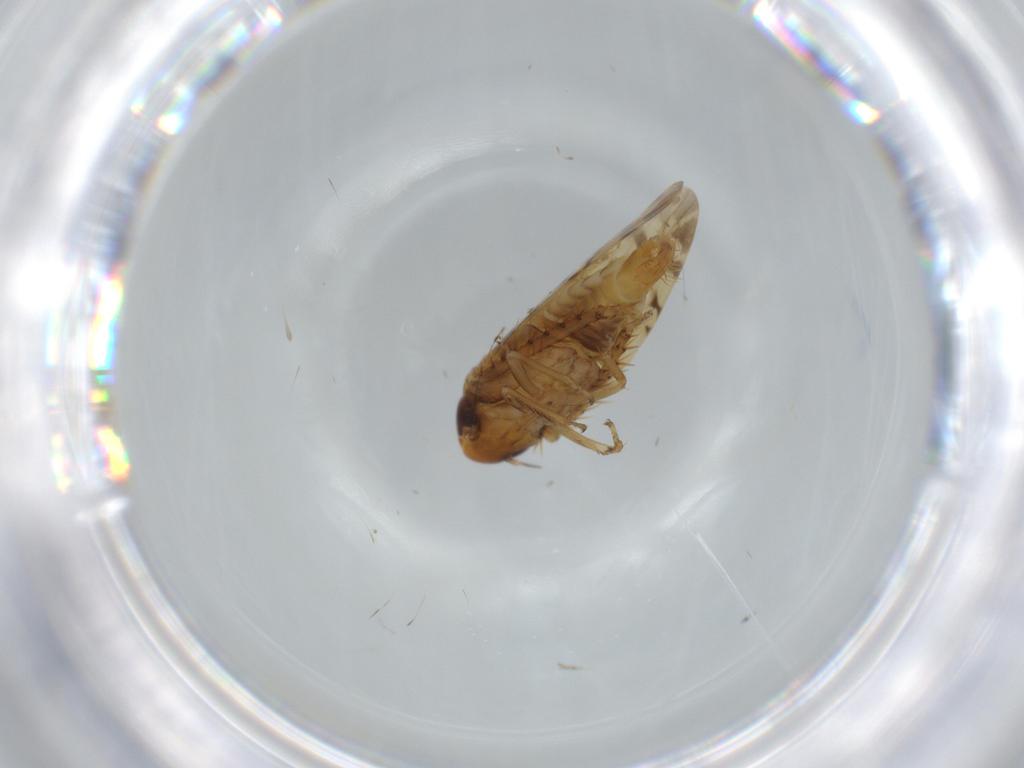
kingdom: Animalia
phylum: Arthropoda
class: Insecta
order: Hemiptera
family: Cicadellidae
